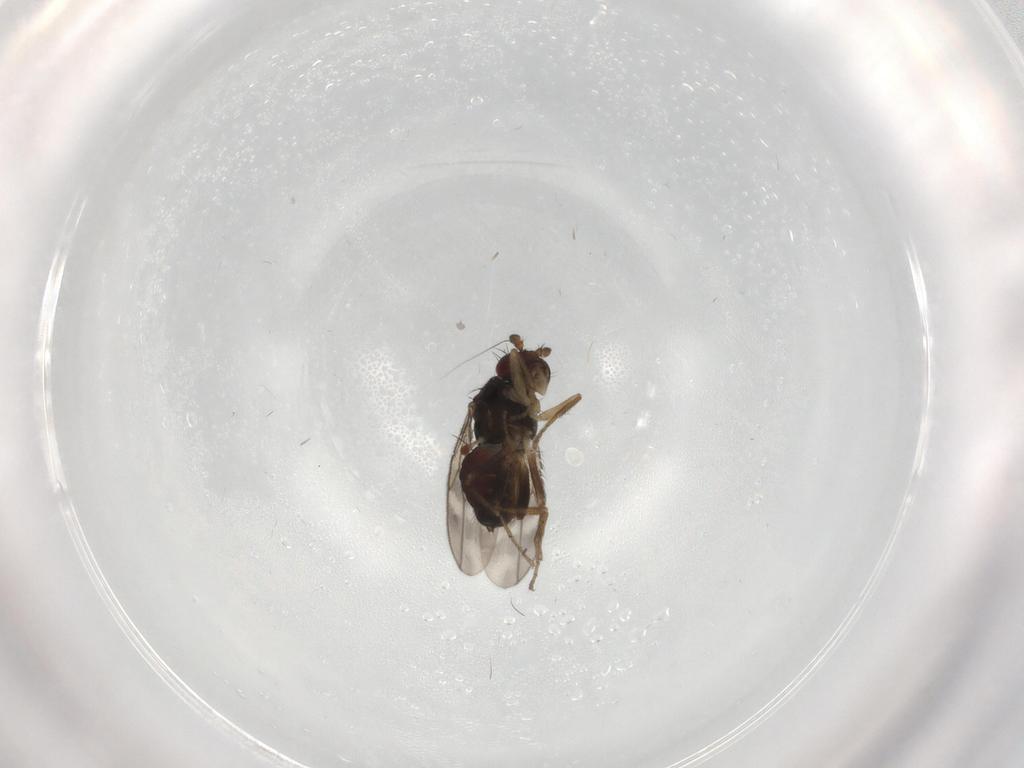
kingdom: Animalia
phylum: Arthropoda
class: Insecta
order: Diptera
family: Sphaeroceridae
